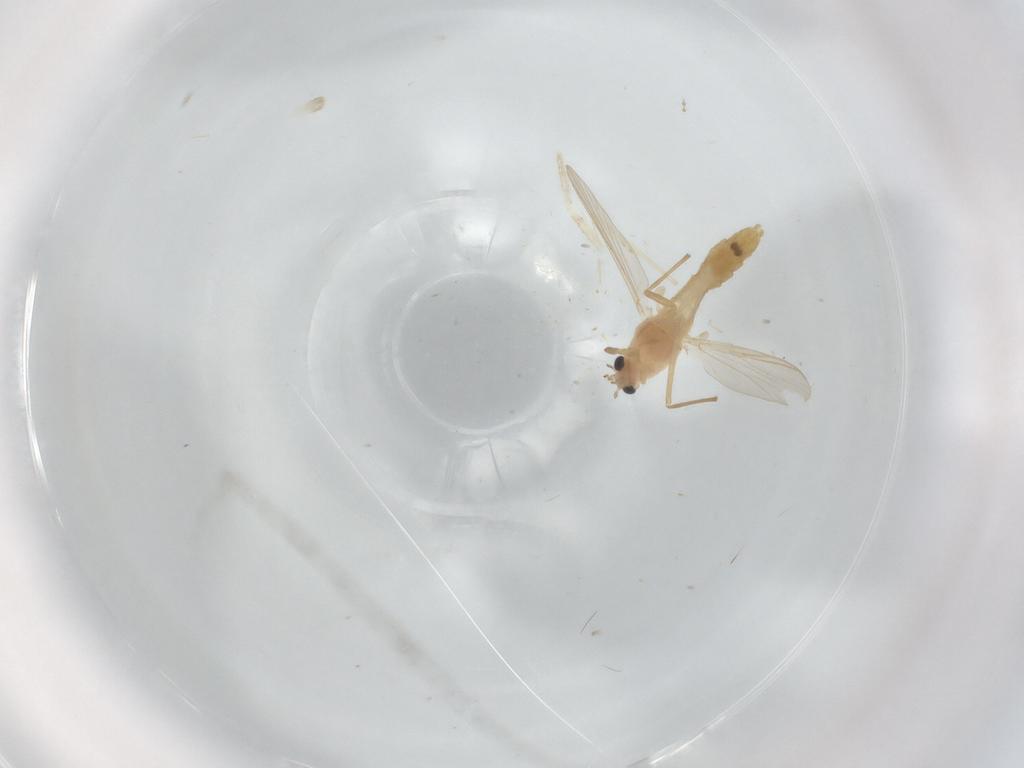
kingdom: Animalia
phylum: Arthropoda
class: Insecta
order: Diptera
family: Chironomidae
